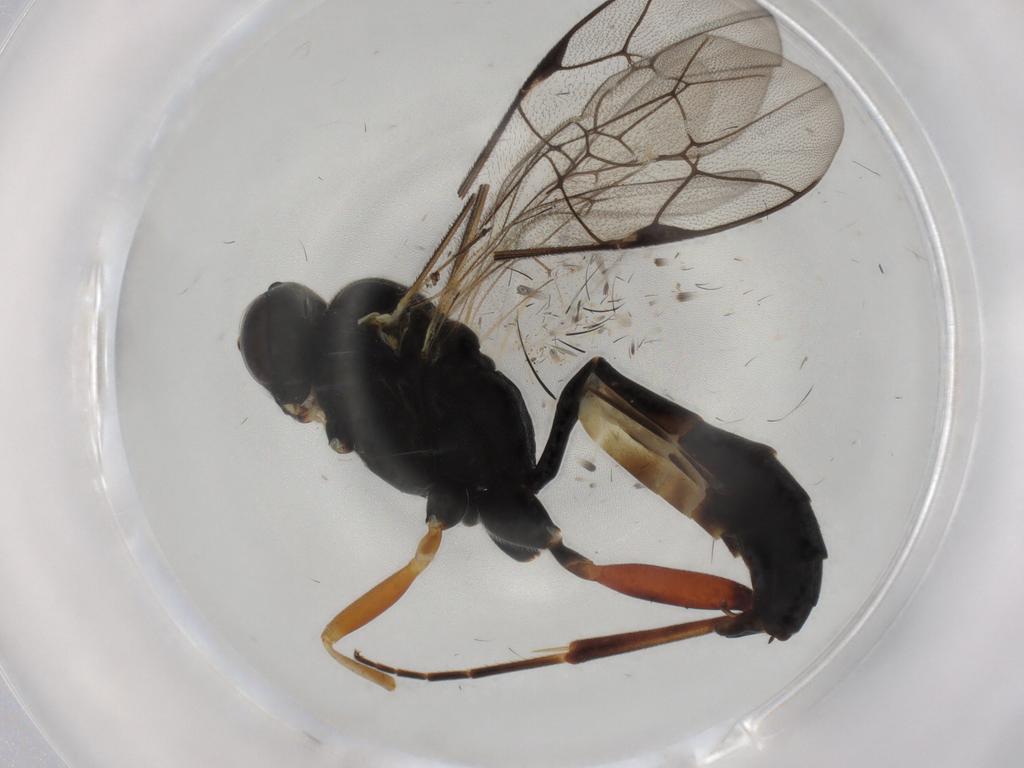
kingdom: Animalia
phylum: Arthropoda
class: Insecta
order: Hymenoptera
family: Ichneumonidae
